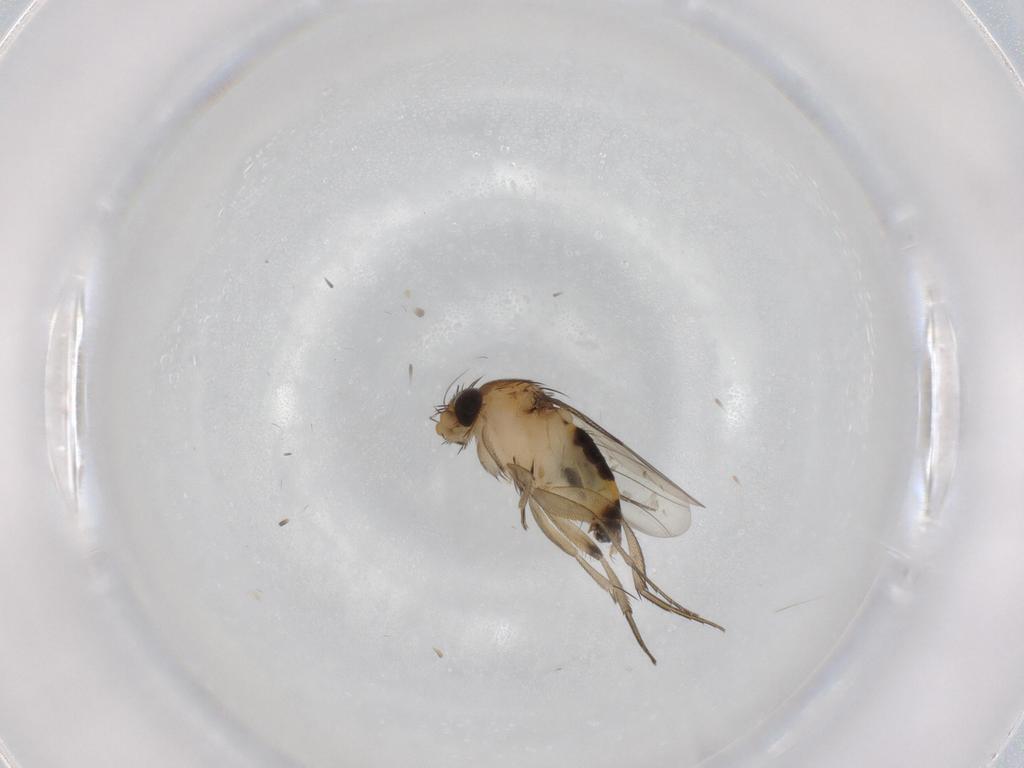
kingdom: Animalia
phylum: Arthropoda
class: Insecta
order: Diptera
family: Phoridae
